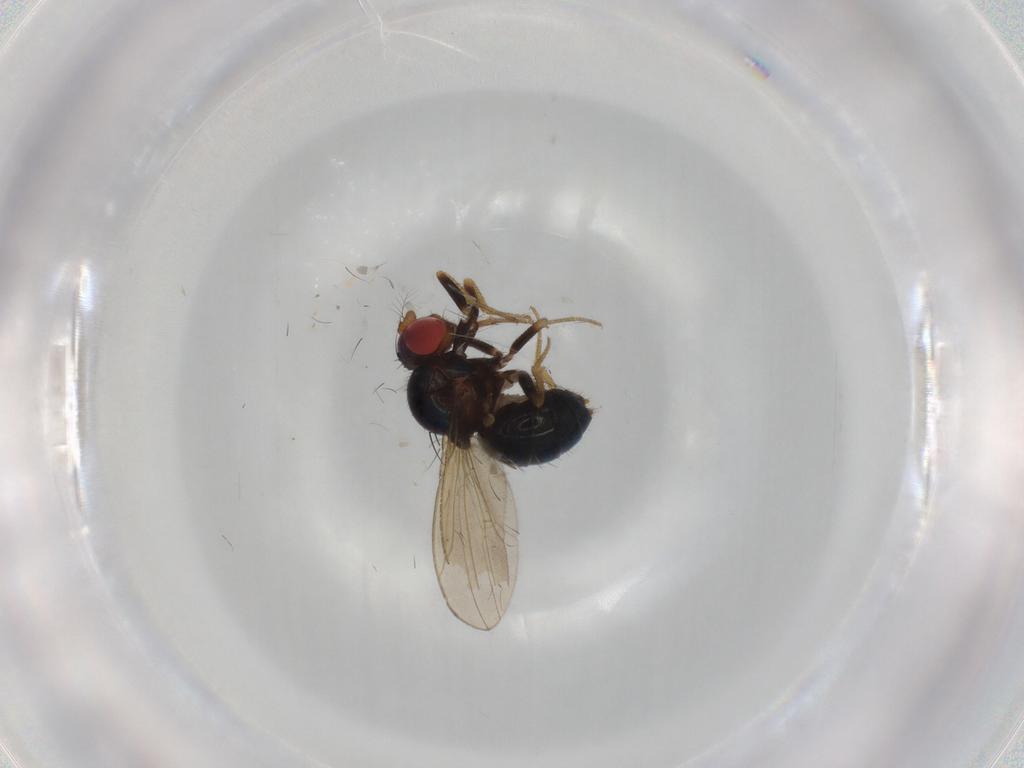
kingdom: Animalia
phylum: Arthropoda
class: Insecta
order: Diptera
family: Drosophilidae
